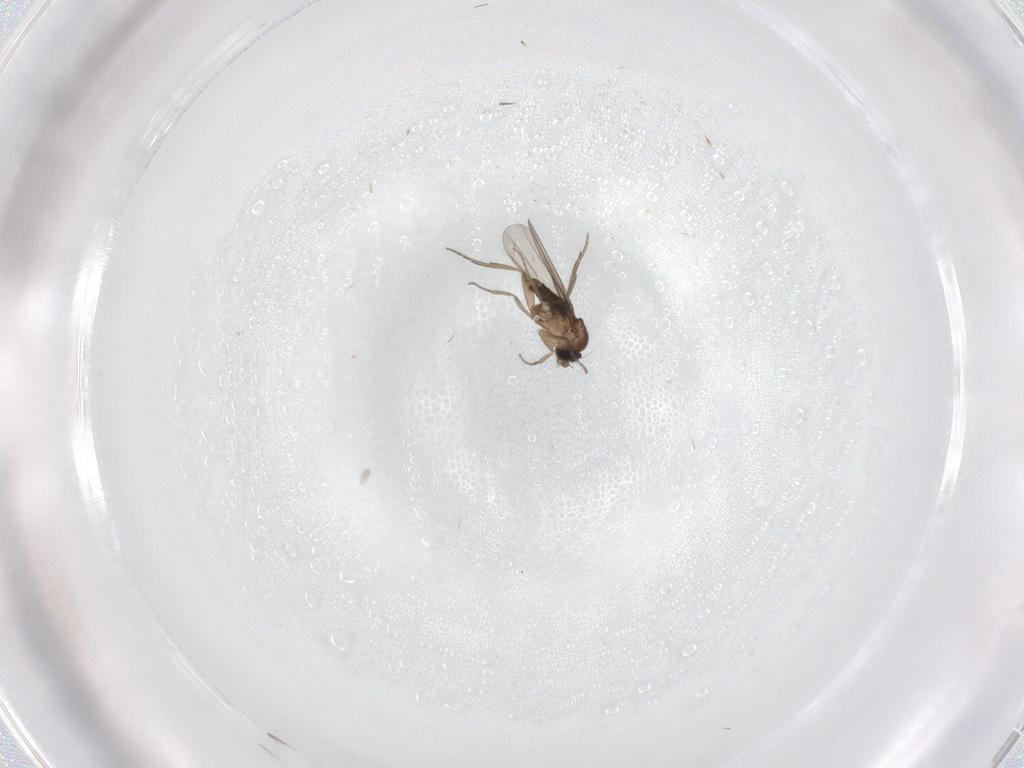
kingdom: Animalia
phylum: Arthropoda
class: Insecta
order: Diptera
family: Phoridae
